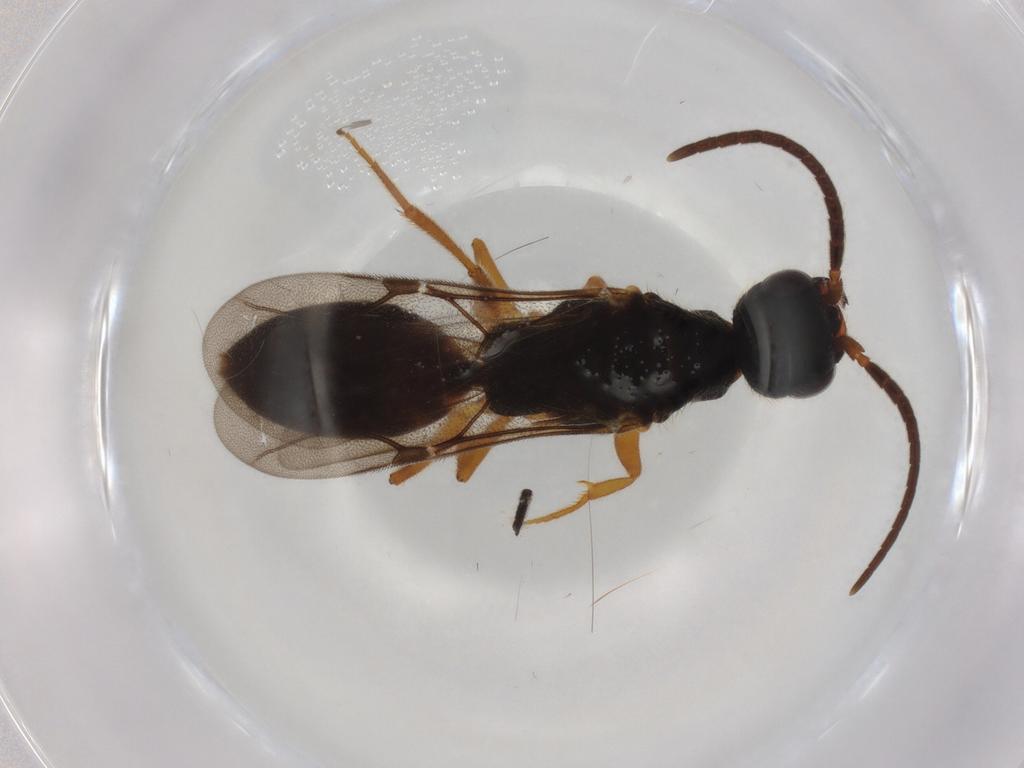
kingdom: Animalia
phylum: Arthropoda
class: Insecta
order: Hymenoptera
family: Bethylidae
